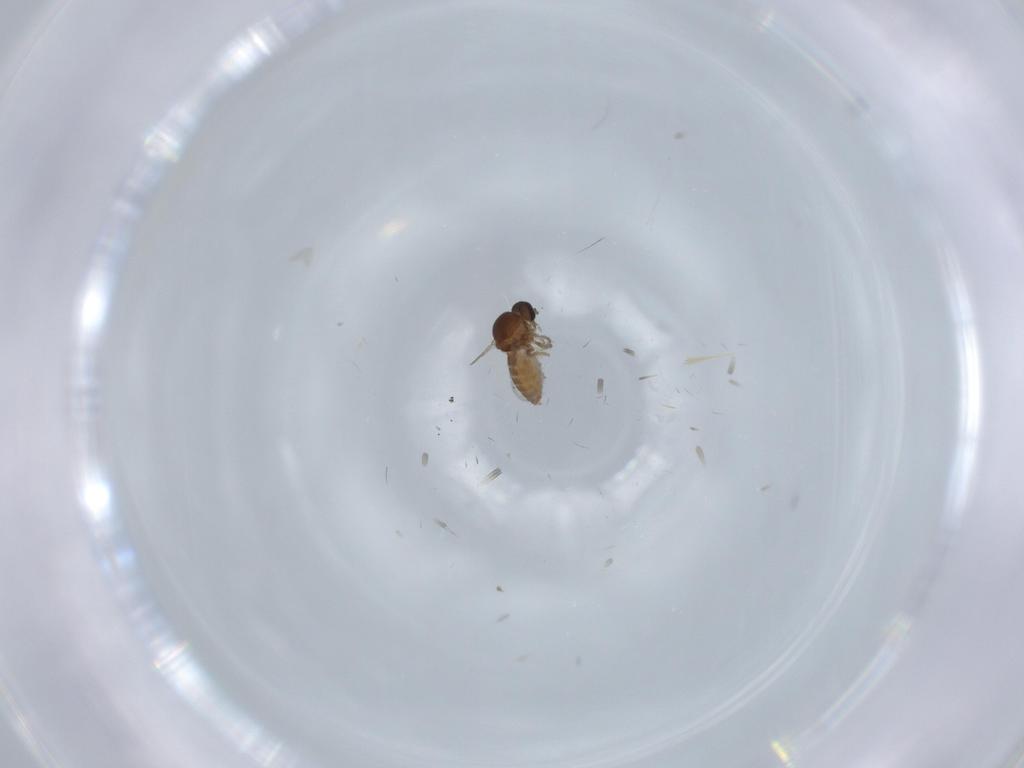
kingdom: Animalia
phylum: Arthropoda
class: Insecta
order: Diptera
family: Ceratopogonidae
